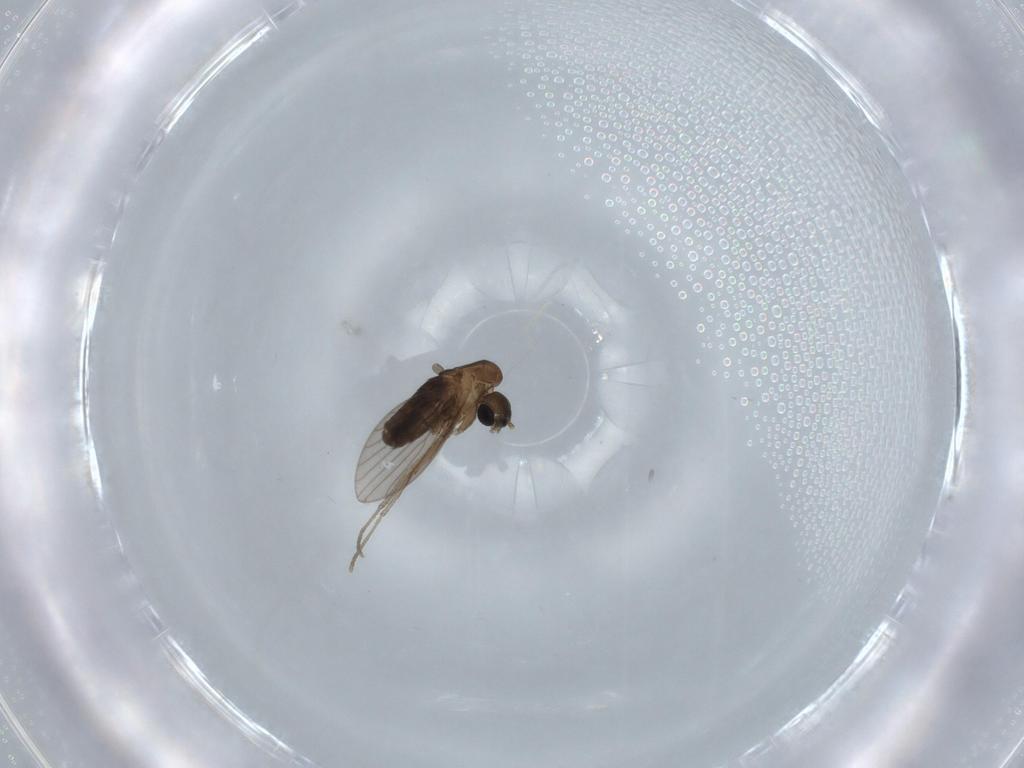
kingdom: Animalia
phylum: Arthropoda
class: Insecta
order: Diptera
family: Psychodidae
